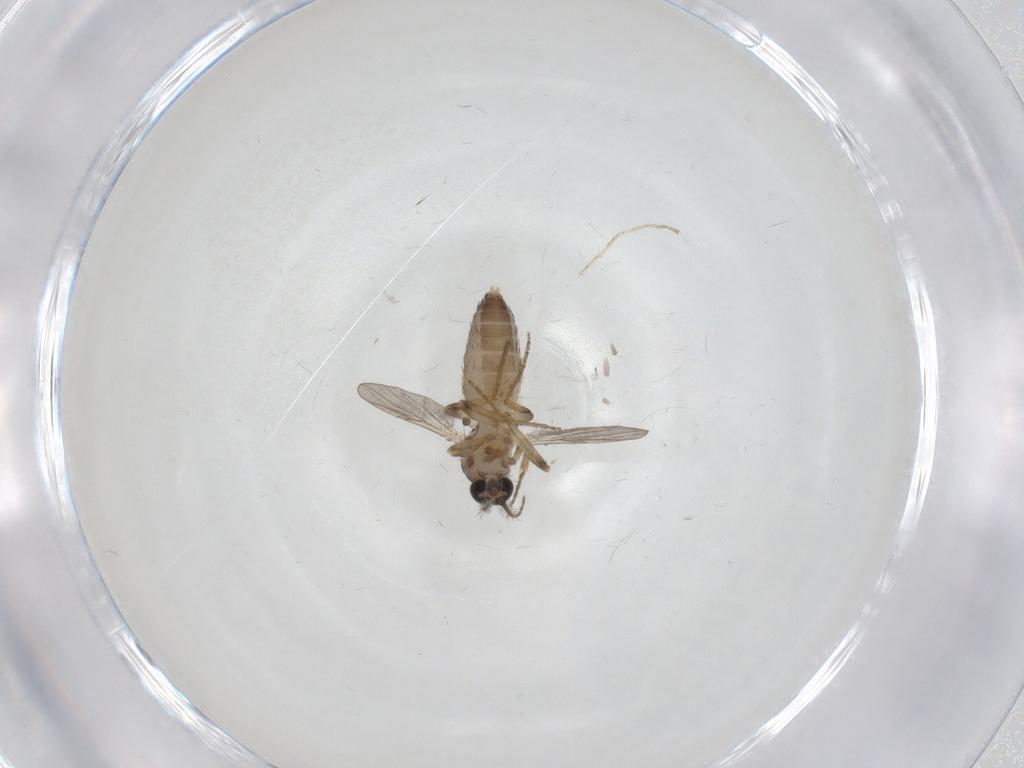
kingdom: Animalia
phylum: Arthropoda
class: Insecta
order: Diptera
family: Ceratopogonidae
